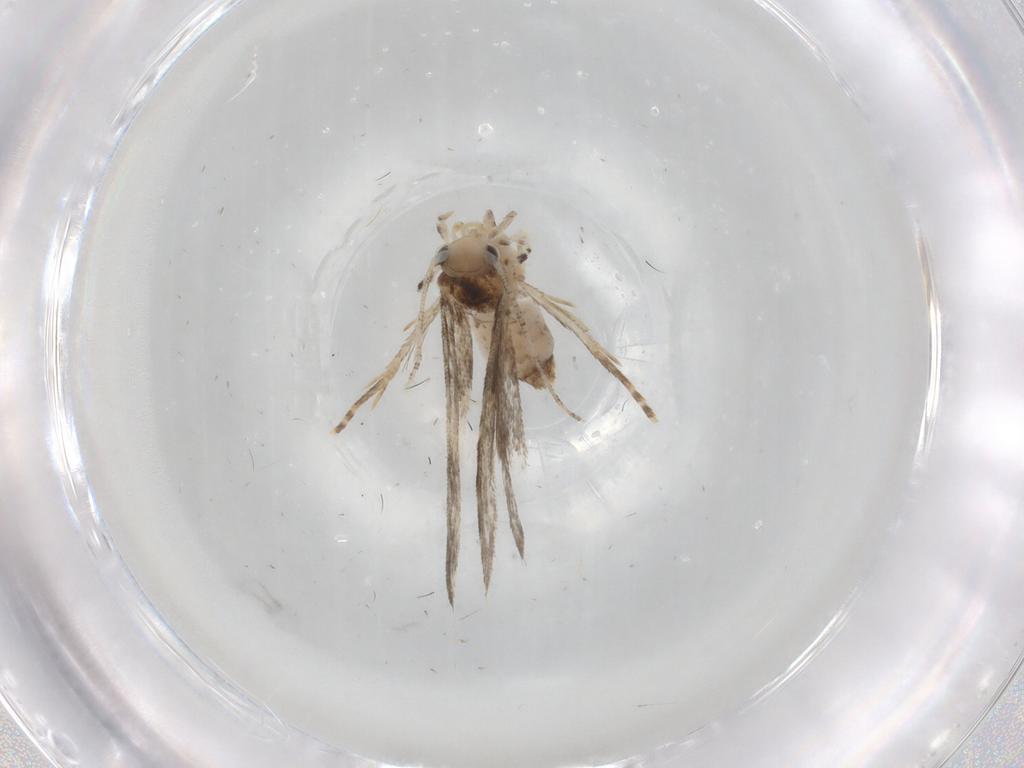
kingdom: Animalia
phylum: Arthropoda
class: Insecta
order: Lepidoptera
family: Tineidae
